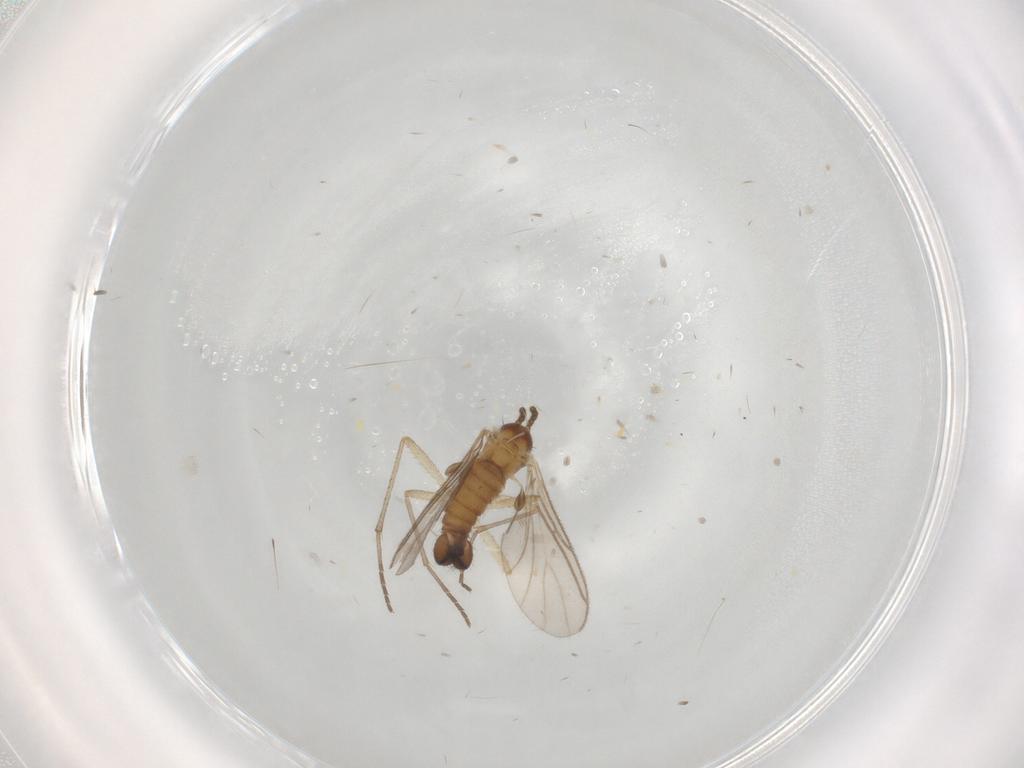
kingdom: Animalia
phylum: Arthropoda
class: Insecta
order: Diptera
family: Sciaridae
